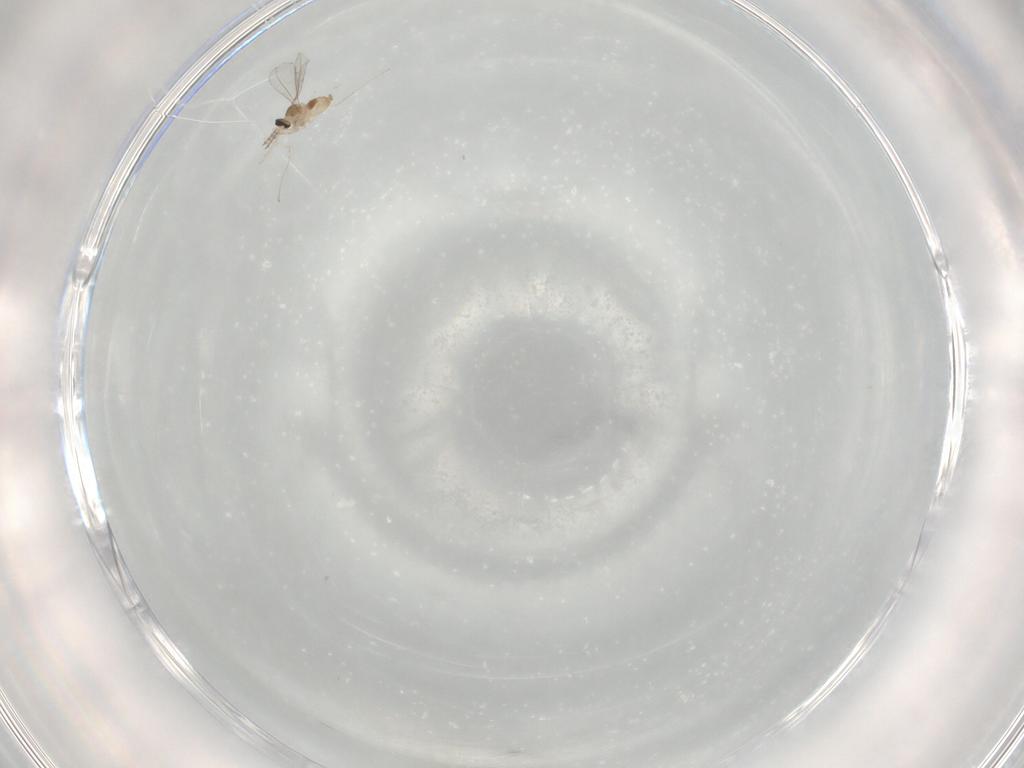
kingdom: Animalia
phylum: Arthropoda
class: Insecta
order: Diptera
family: Cecidomyiidae
